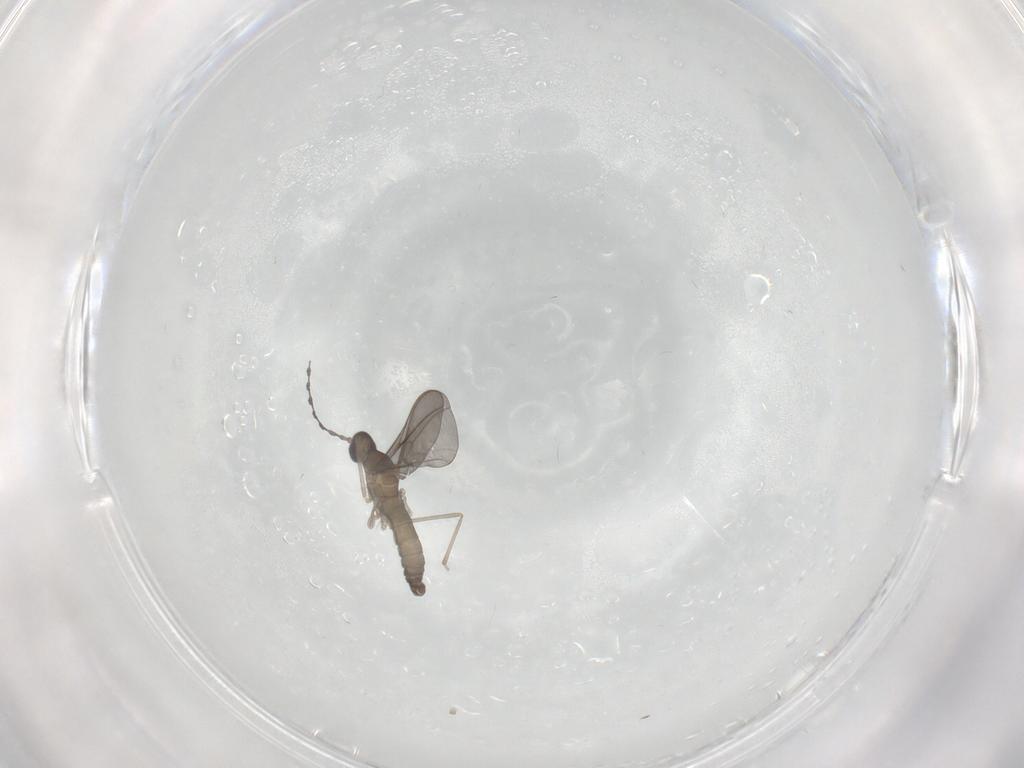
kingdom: Animalia
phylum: Arthropoda
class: Insecta
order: Diptera
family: Cecidomyiidae
